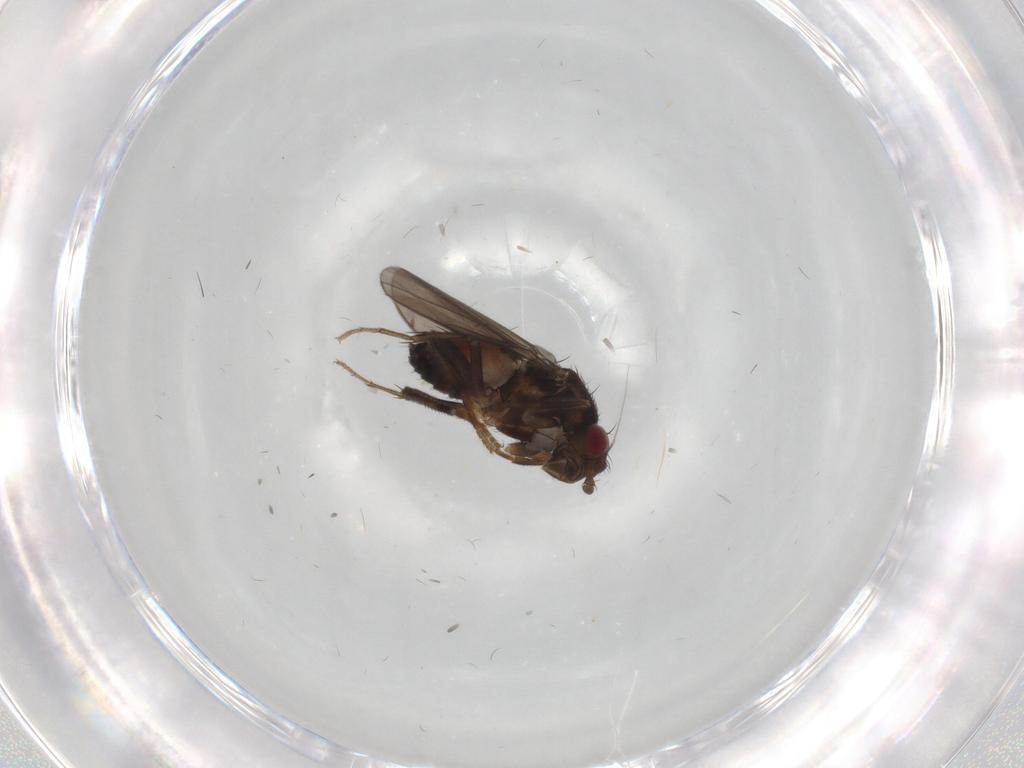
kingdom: Animalia
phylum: Arthropoda
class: Insecta
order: Diptera
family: Sphaeroceridae
